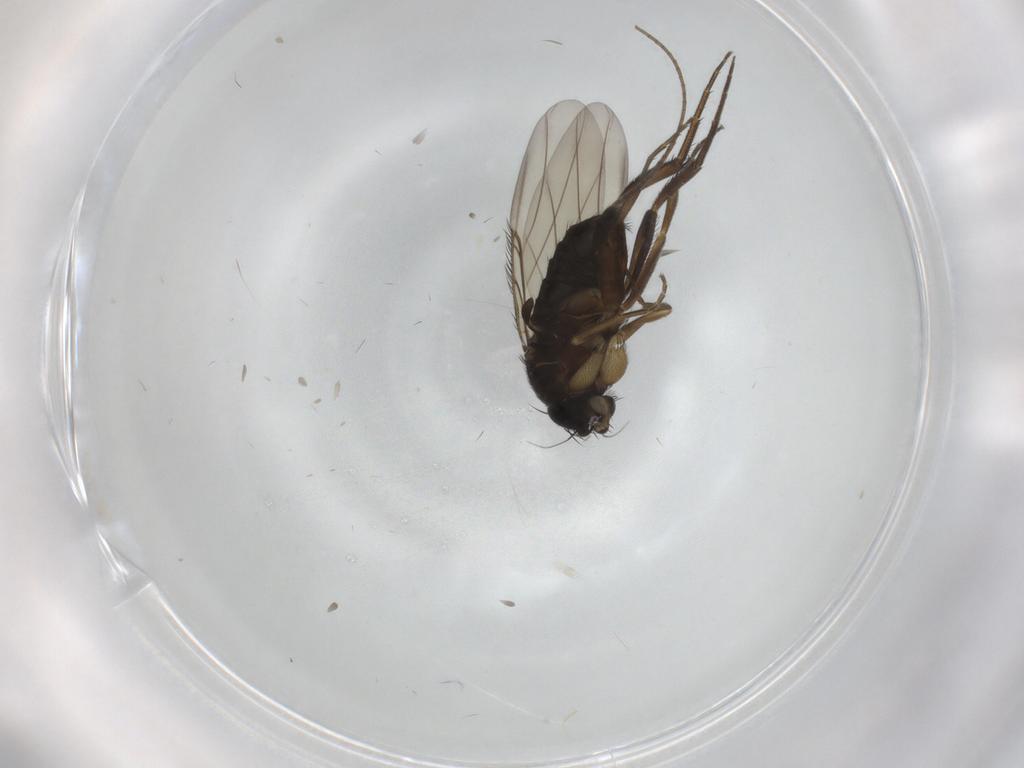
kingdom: Animalia
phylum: Arthropoda
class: Insecta
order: Diptera
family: Phoridae
